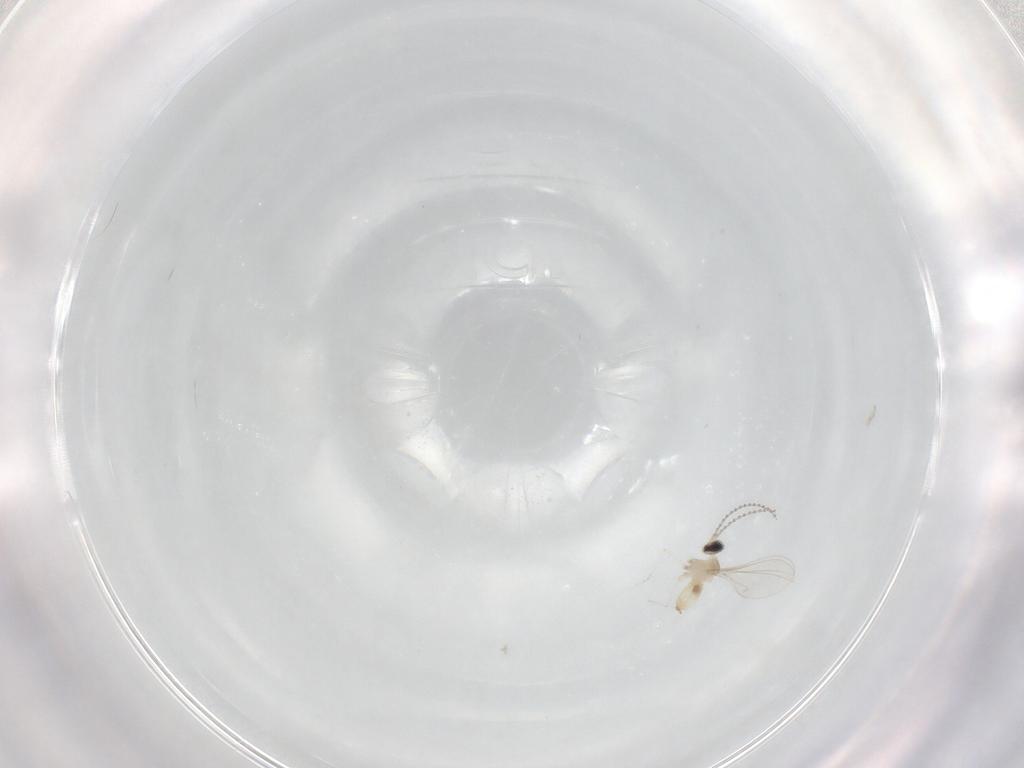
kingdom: Animalia
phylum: Arthropoda
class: Insecta
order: Diptera
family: Cecidomyiidae
